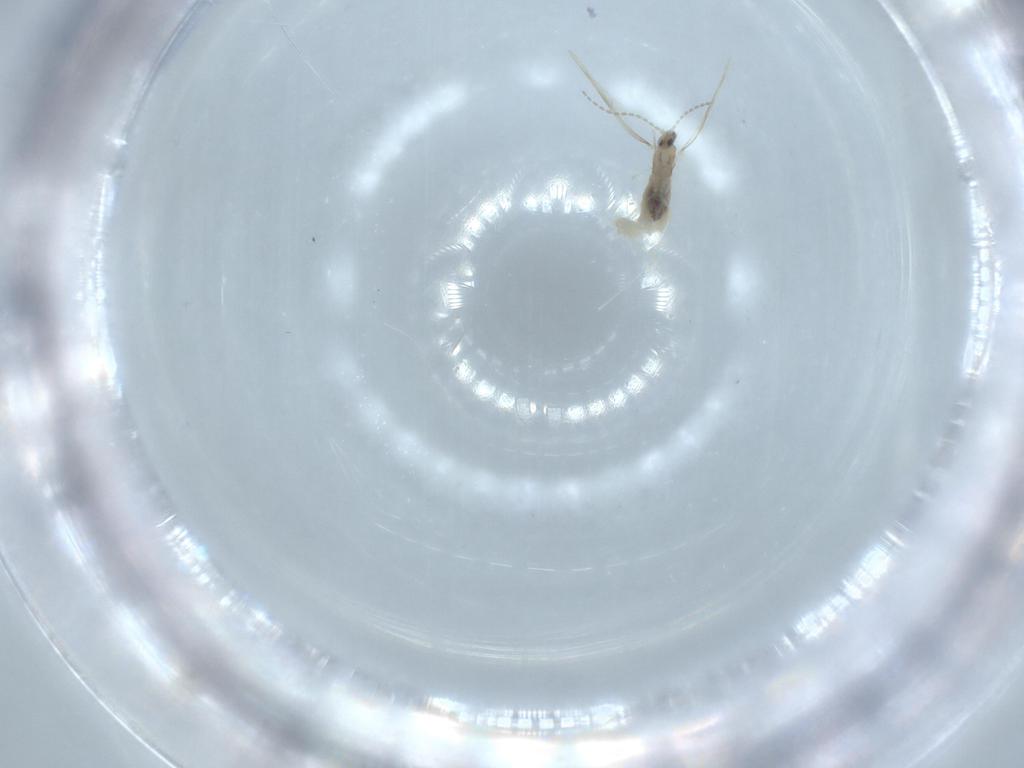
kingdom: Animalia
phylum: Arthropoda
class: Insecta
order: Diptera
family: Cecidomyiidae
